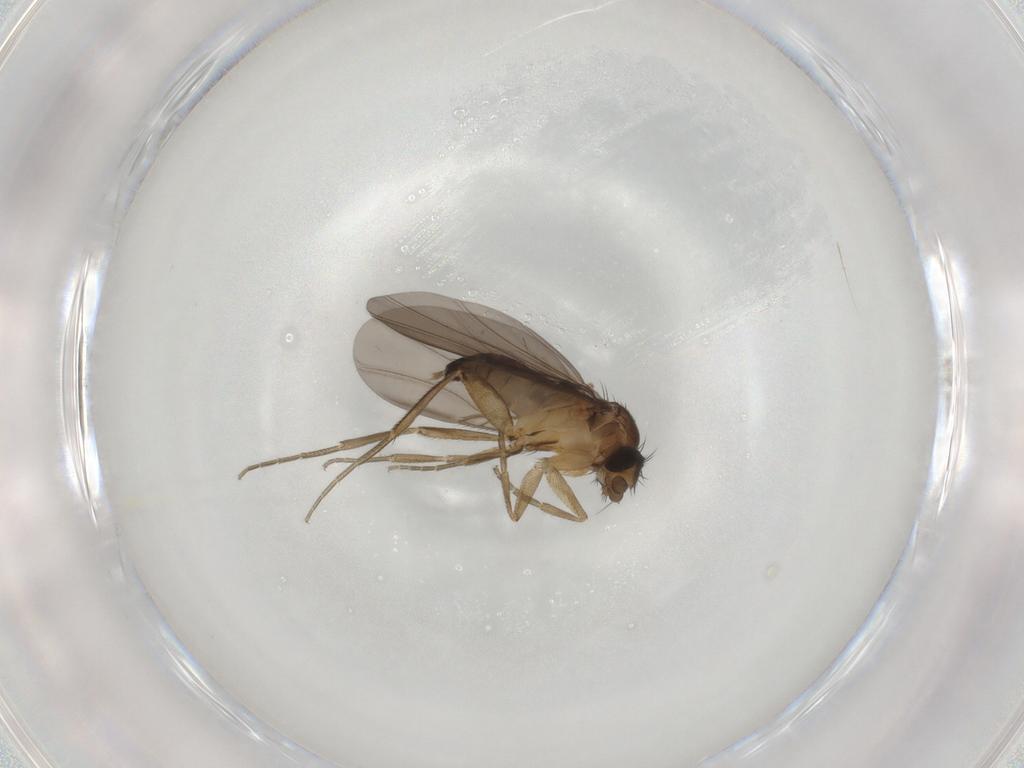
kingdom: Animalia
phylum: Arthropoda
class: Insecta
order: Diptera
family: Phoridae
